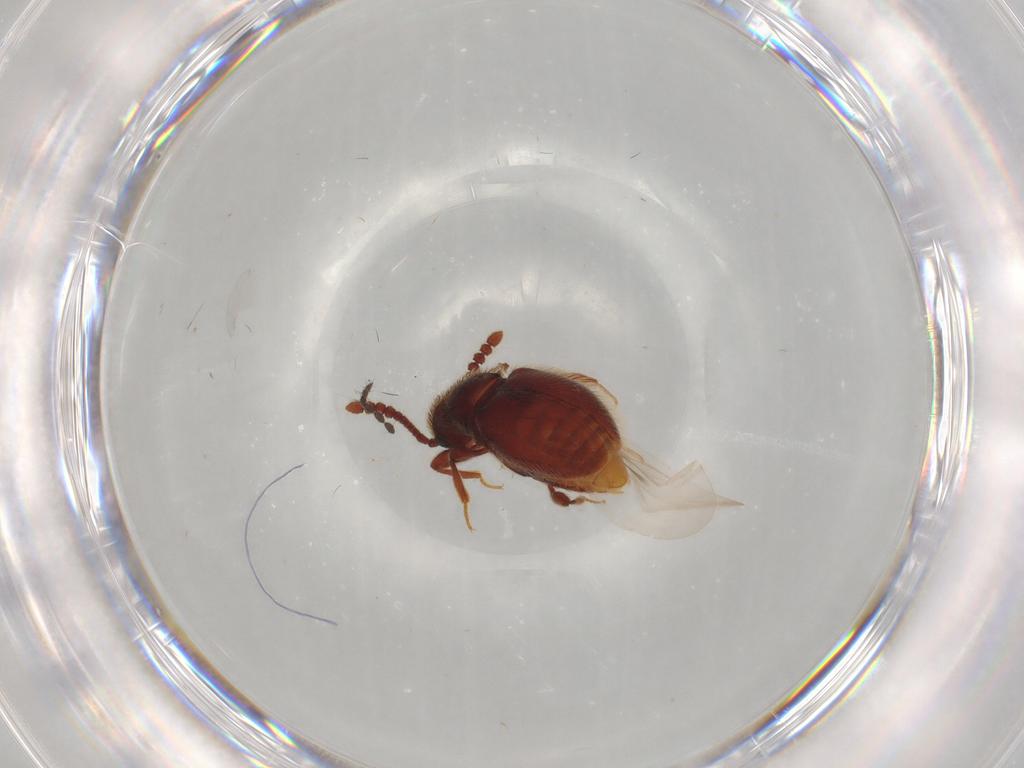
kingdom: Animalia
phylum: Arthropoda
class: Insecta
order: Coleoptera
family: Staphylinidae
